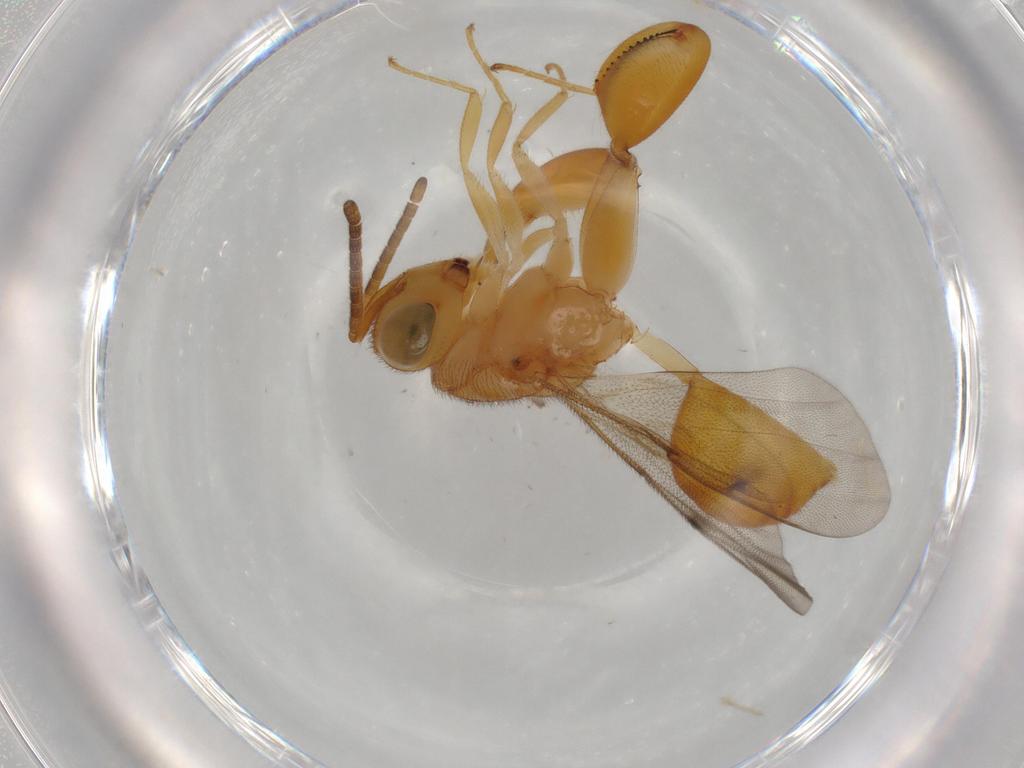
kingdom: Animalia
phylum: Arthropoda
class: Insecta
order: Hymenoptera
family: Chalcididae
